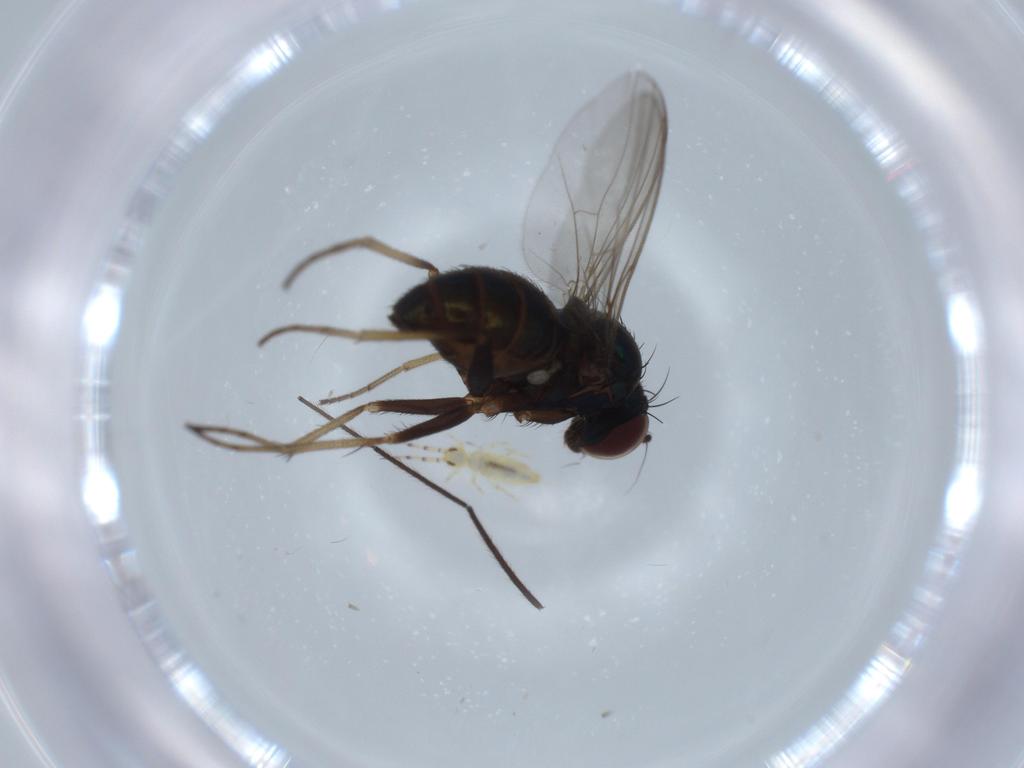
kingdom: Animalia
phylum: Arthropoda
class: Insecta
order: Diptera
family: Dolichopodidae
